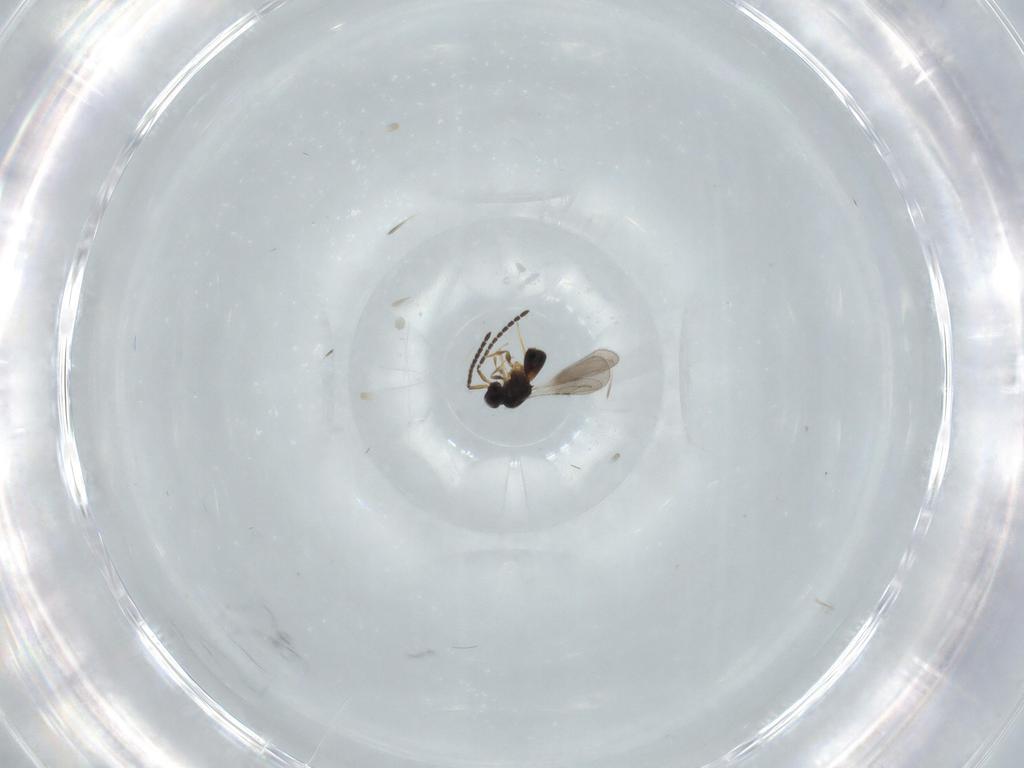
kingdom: Animalia
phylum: Arthropoda
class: Insecta
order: Hymenoptera
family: Ceraphronidae
